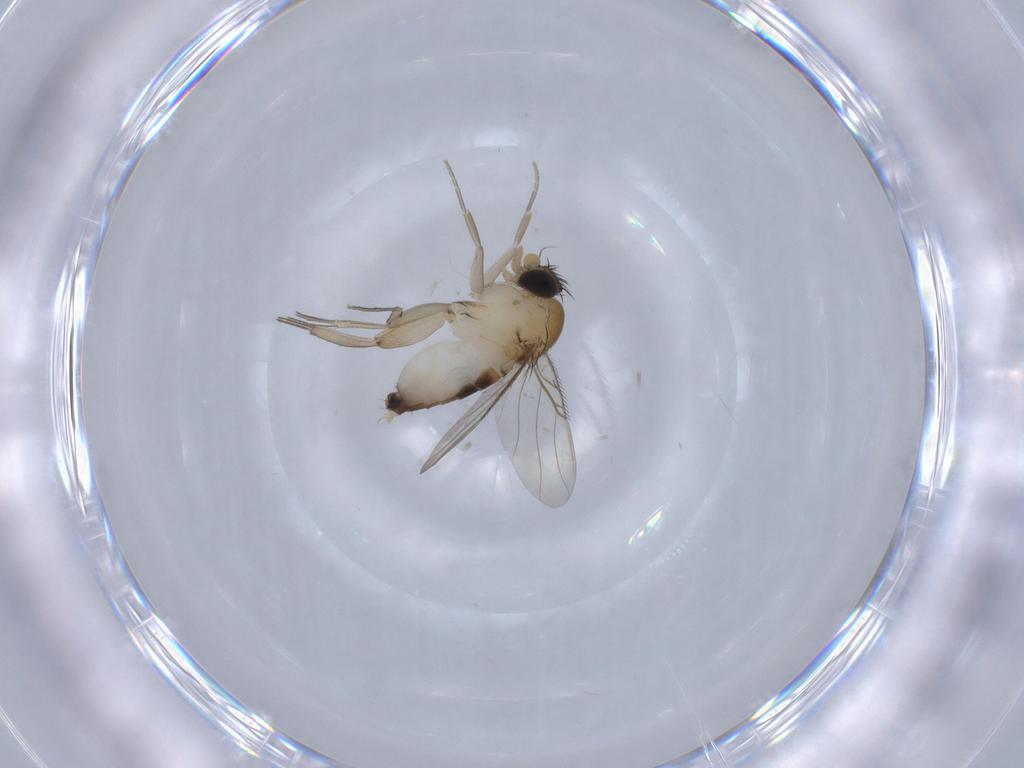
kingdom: Animalia
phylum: Arthropoda
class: Insecta
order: Diptera
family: Phoridae
